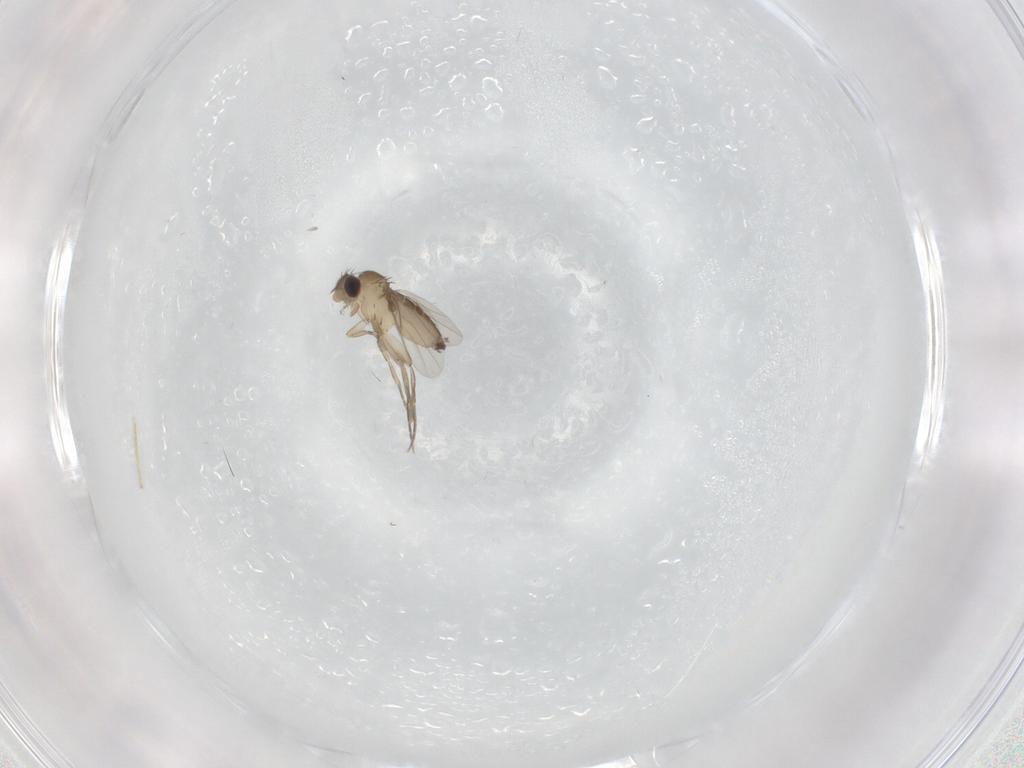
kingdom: Animalia
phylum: Arthropoda
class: Insecta
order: Diptera
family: Phoridae
